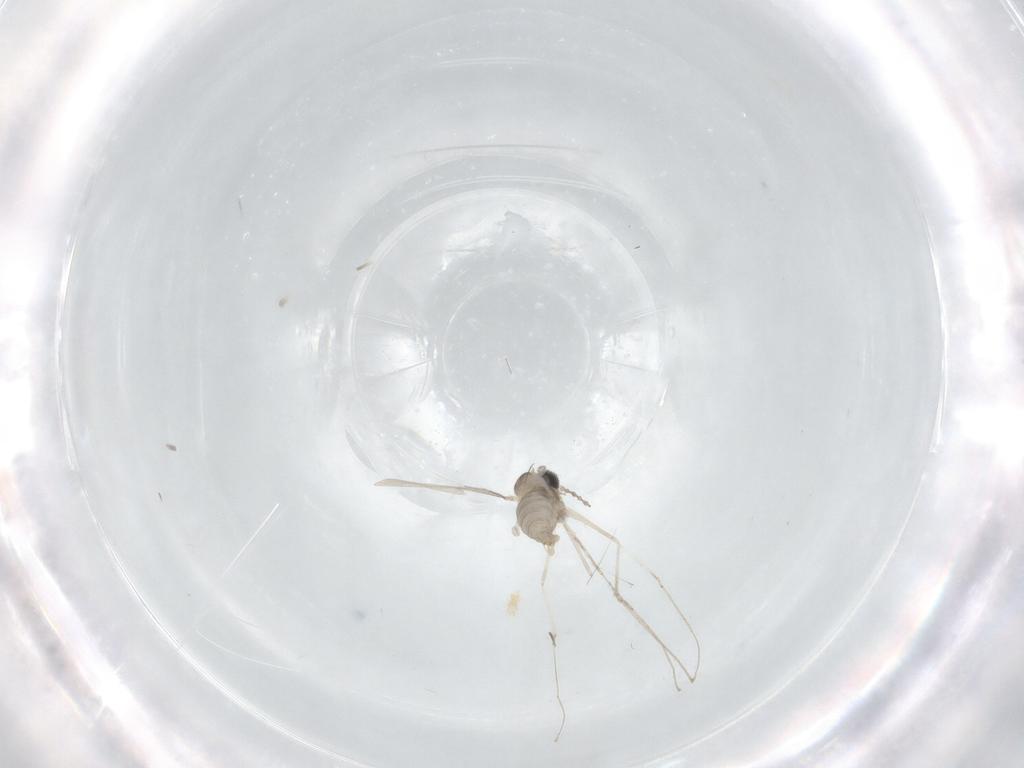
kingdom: Animalia
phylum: Arthropoda
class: Insecta
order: Diptera
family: Cecidomyiidae
